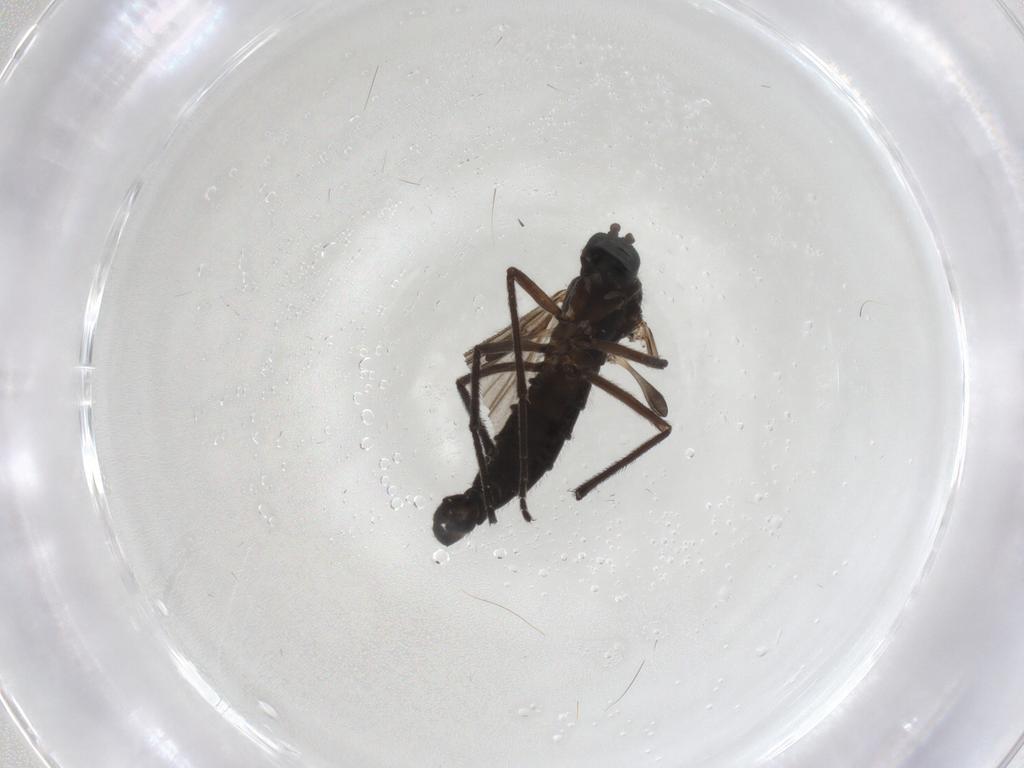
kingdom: Animalia
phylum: Arthropoda
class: Insecta
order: Diptera
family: Sciaridae
